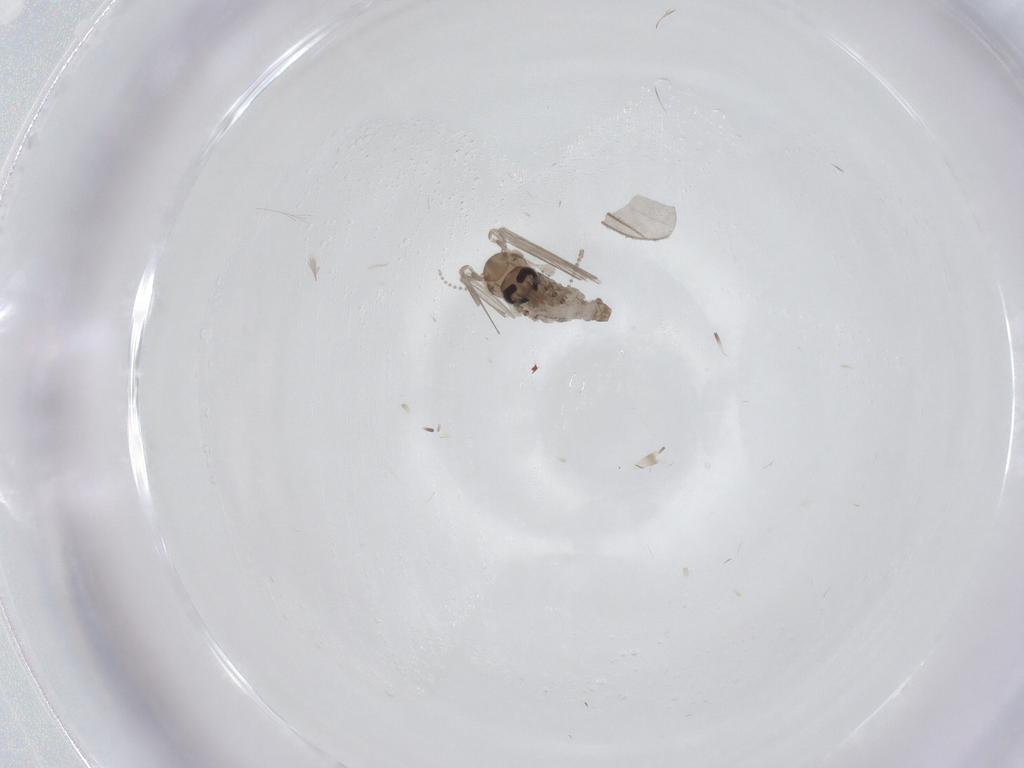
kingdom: Animalia
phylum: Arthropoda
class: Insecta
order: Diptera
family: Psychodidae
